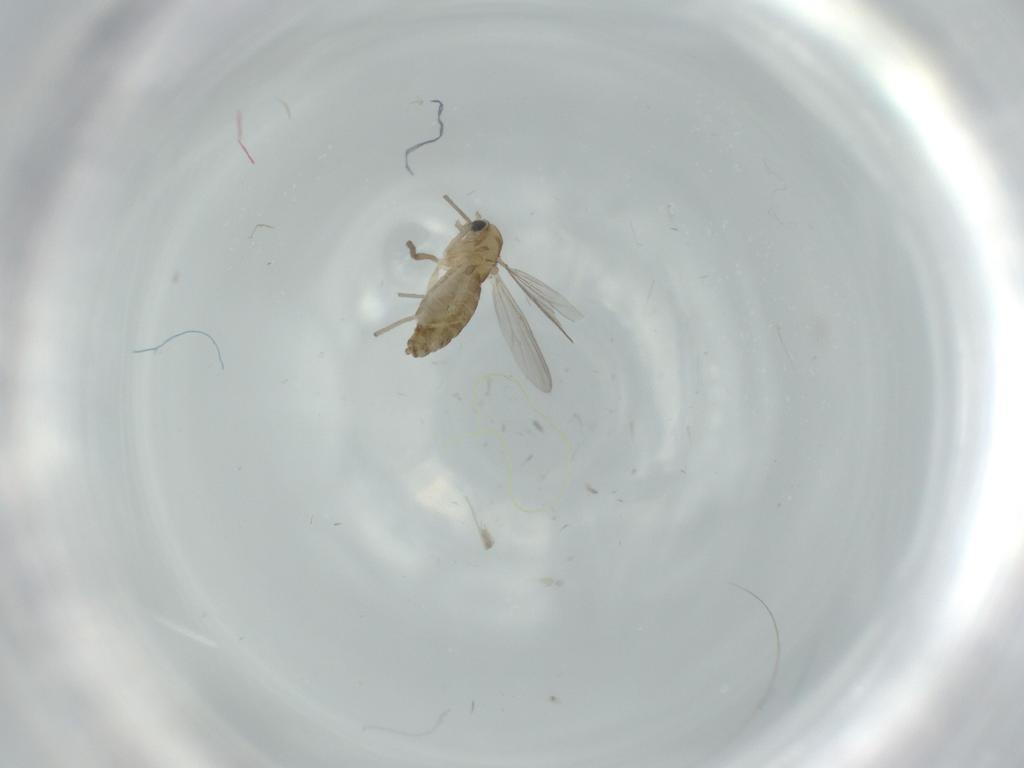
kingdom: Animalia
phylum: Arthropoda
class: Insecta
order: Diptera
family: Chironomidae
